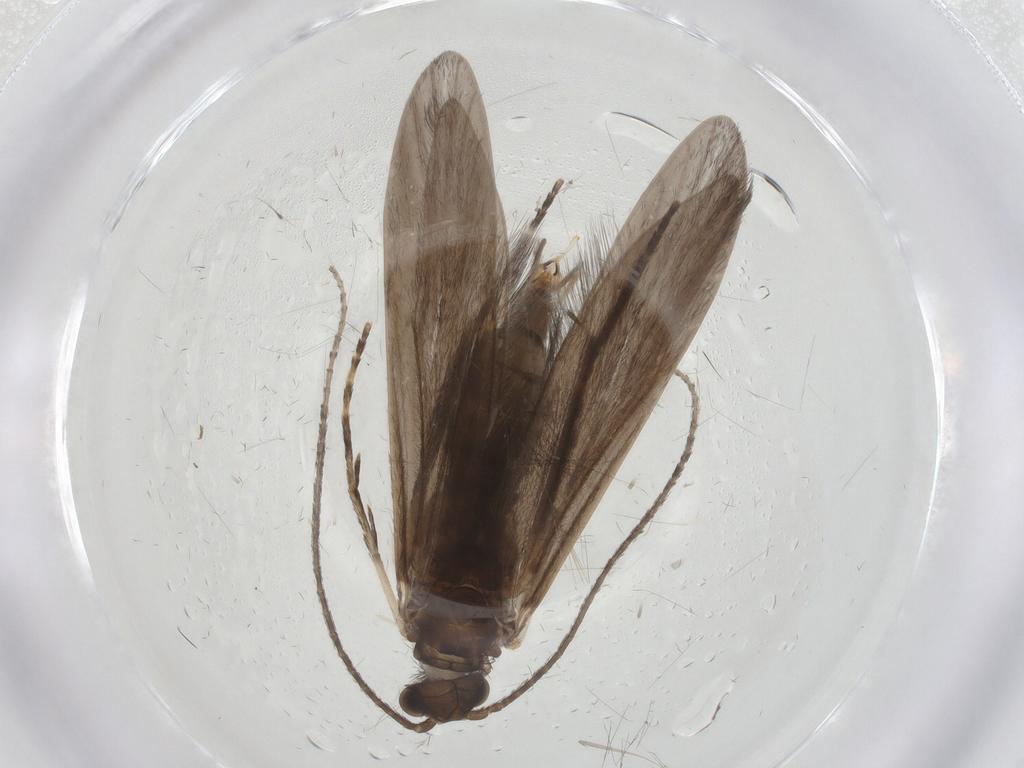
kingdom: Animalia
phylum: Arthropoda
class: Insecta
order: Trichoptera
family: Xiphocentronidae
